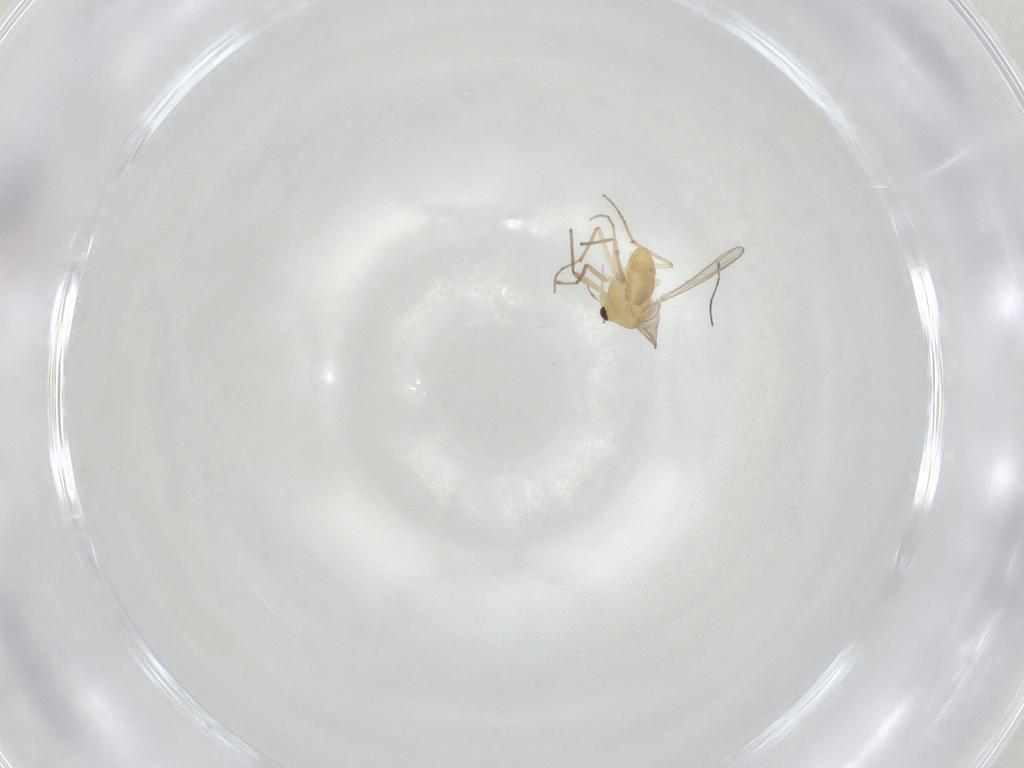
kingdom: Animalia
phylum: Arthropoda
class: Insecta
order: Diptera
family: Chironomidae
